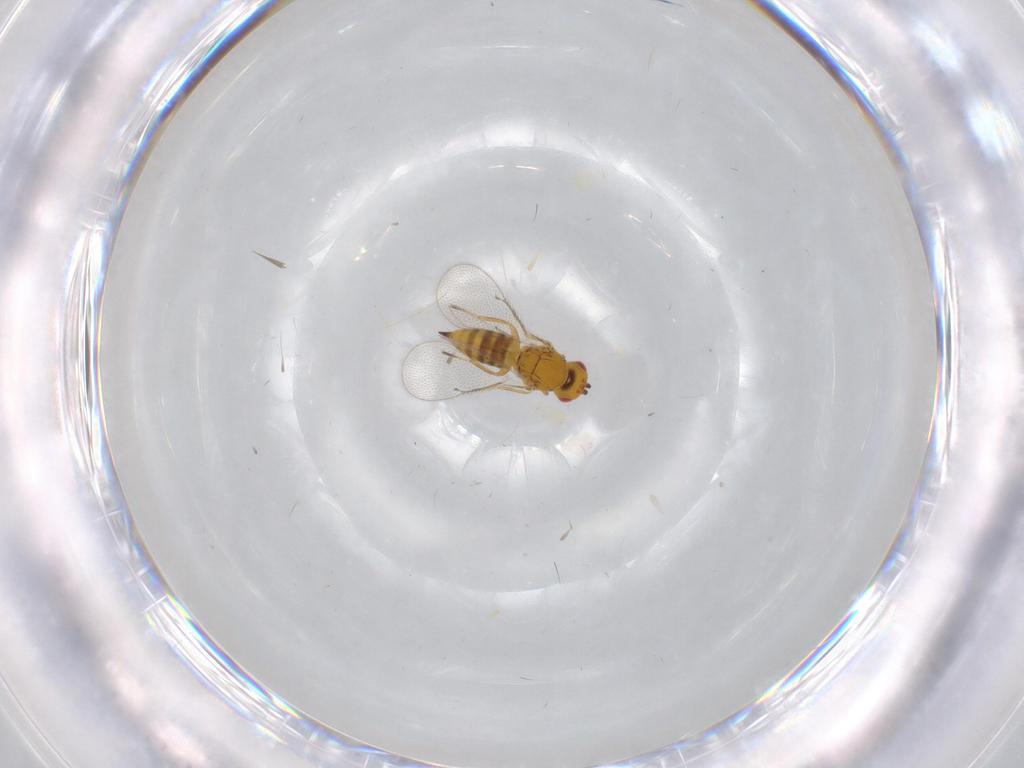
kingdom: Animalia
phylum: Arthropoda
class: Insecta
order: Hymenoptera
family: Eulophidae
